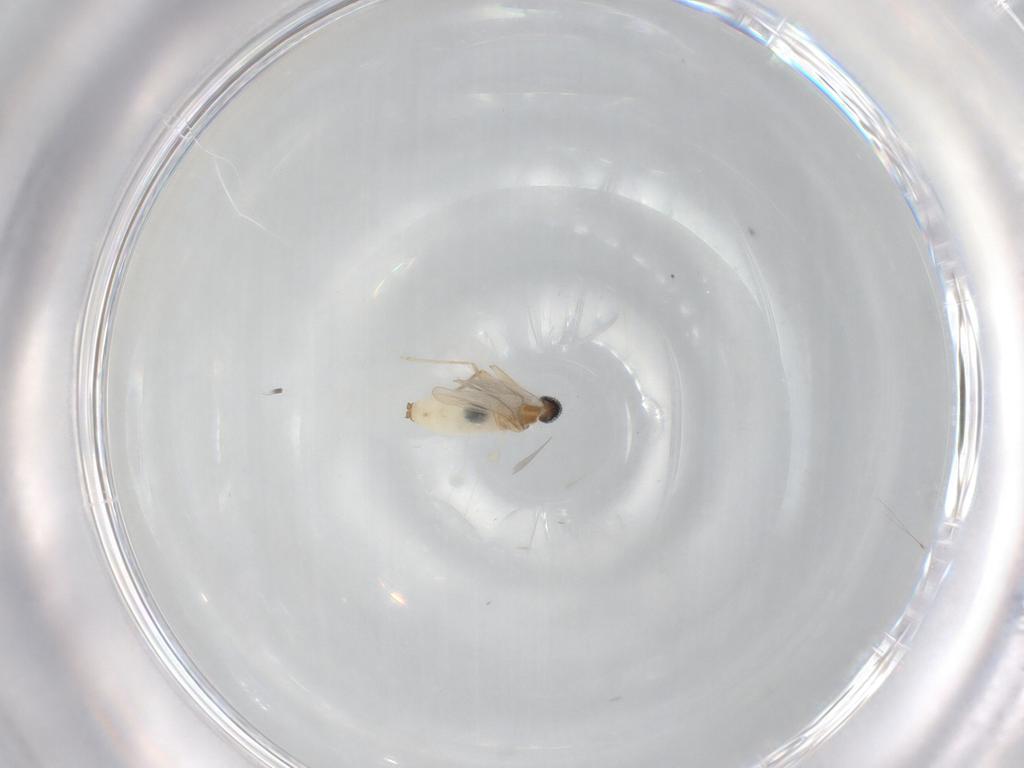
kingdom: Animalia
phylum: Arthropoda
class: Insecta
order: Diptera
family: Cecidomyiidae
